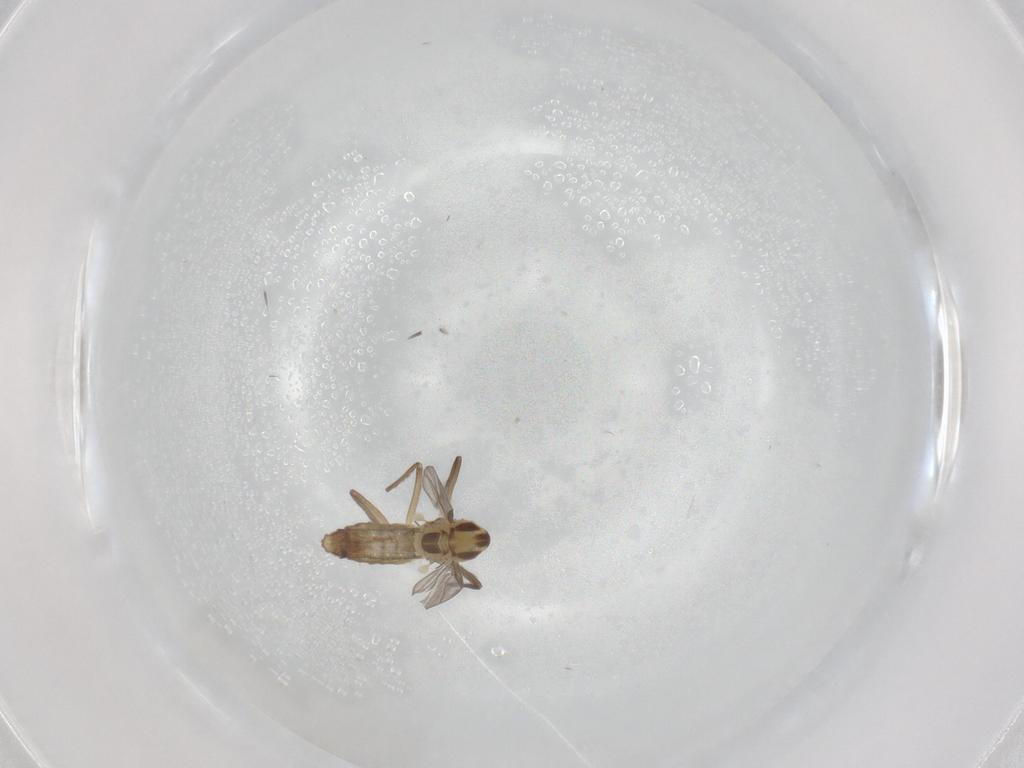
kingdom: Animalia
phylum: Arthropoda
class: Insecta
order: Diptera
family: Chironomidae
